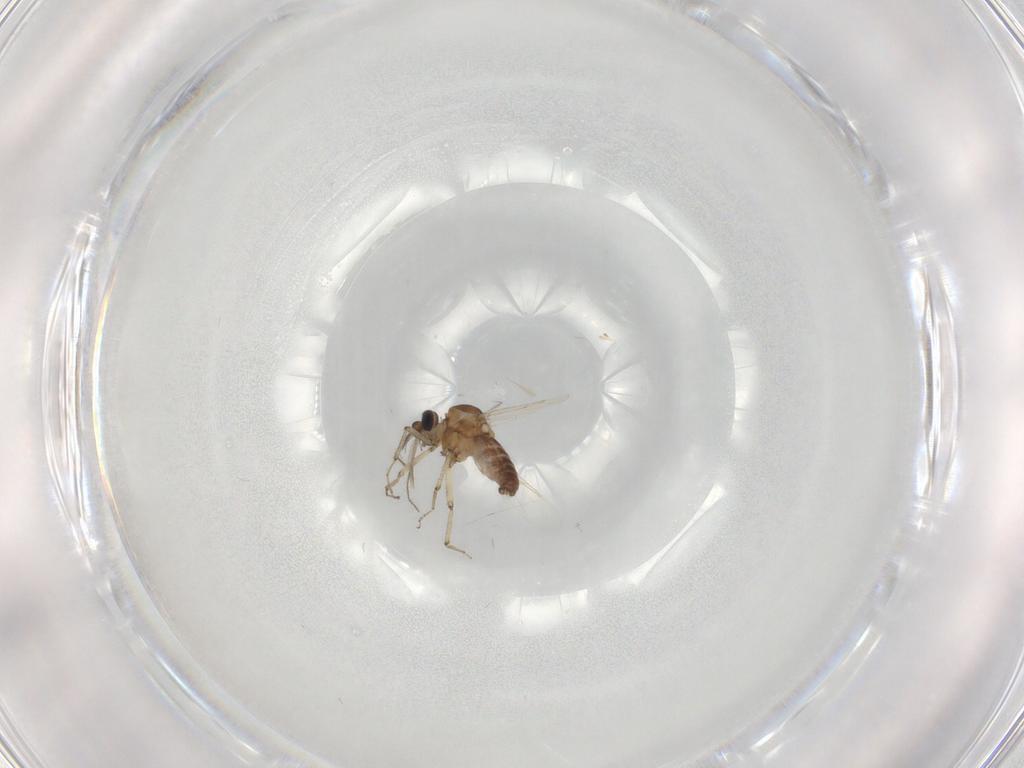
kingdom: Animalia
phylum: Arthropoda
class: Insecta
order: Diptera
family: Ceratopogonidae
